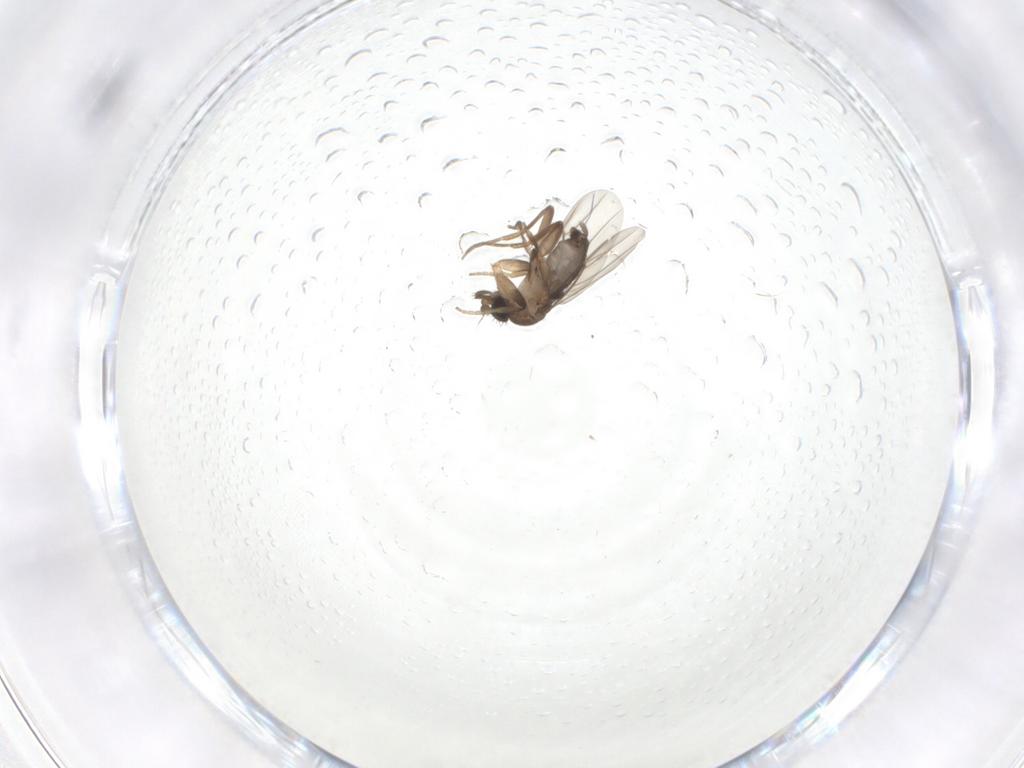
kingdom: Animalia
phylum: Arthropoda
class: Insecta
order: Diptera
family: Phoridae
